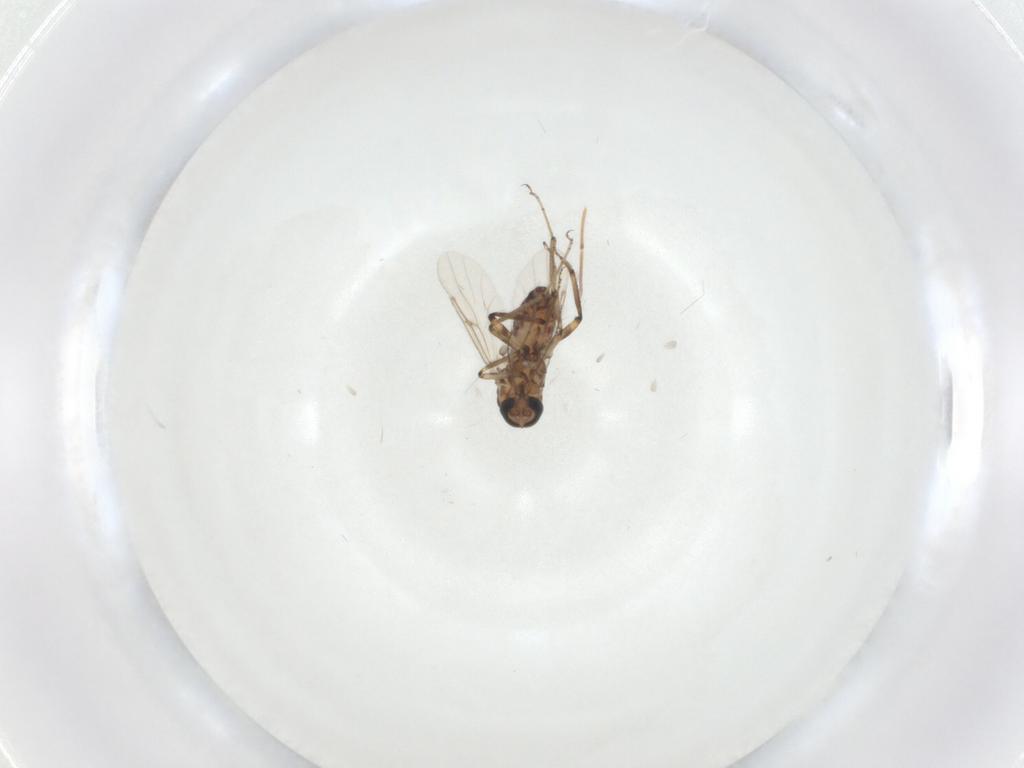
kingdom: Animalia
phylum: Arthropoda
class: Insecta
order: Diptera
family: Ceratopogonidae
